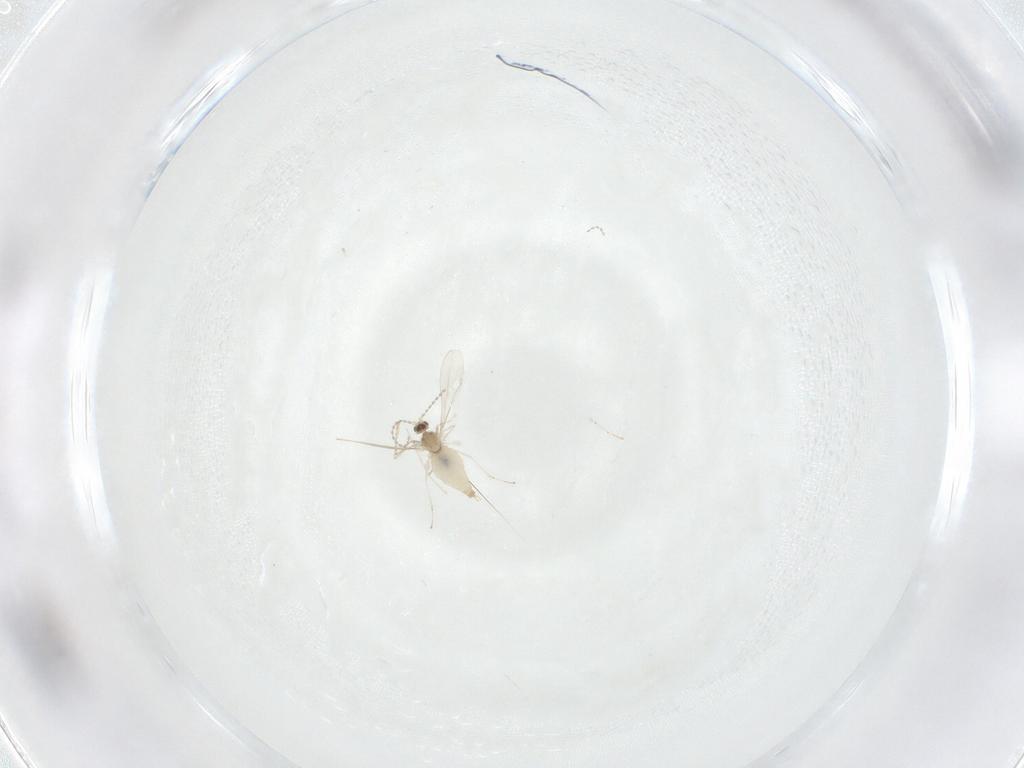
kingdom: Animalia
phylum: Arthropoda
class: Insecta
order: Diptera
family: Cecidomyiidae
